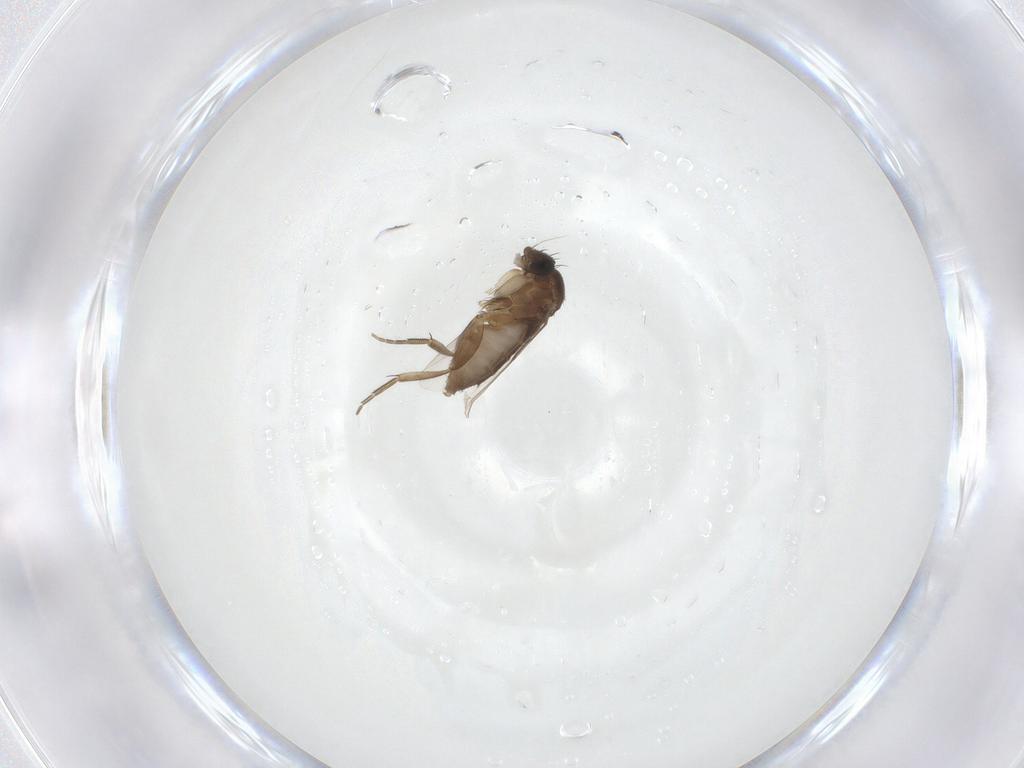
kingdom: Animalia
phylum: Arthropoda
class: Insecta
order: Diptera
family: Phoridae
